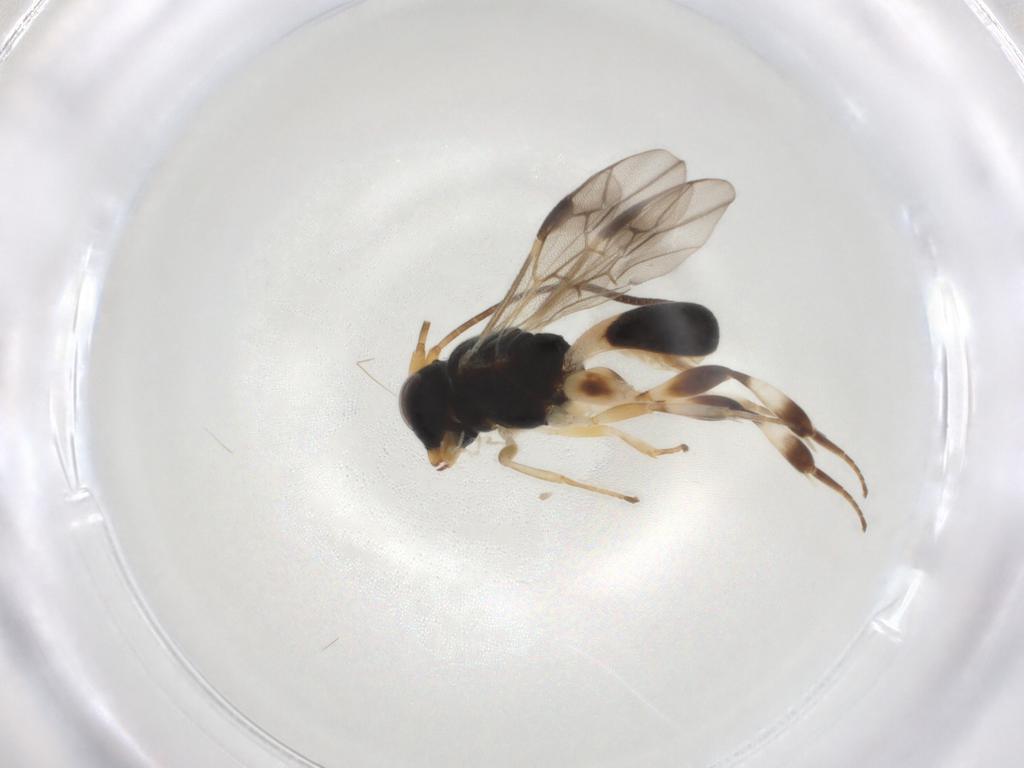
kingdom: Animalia
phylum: Arthropoda
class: Insecta
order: Hymenoptera
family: Braconidae
